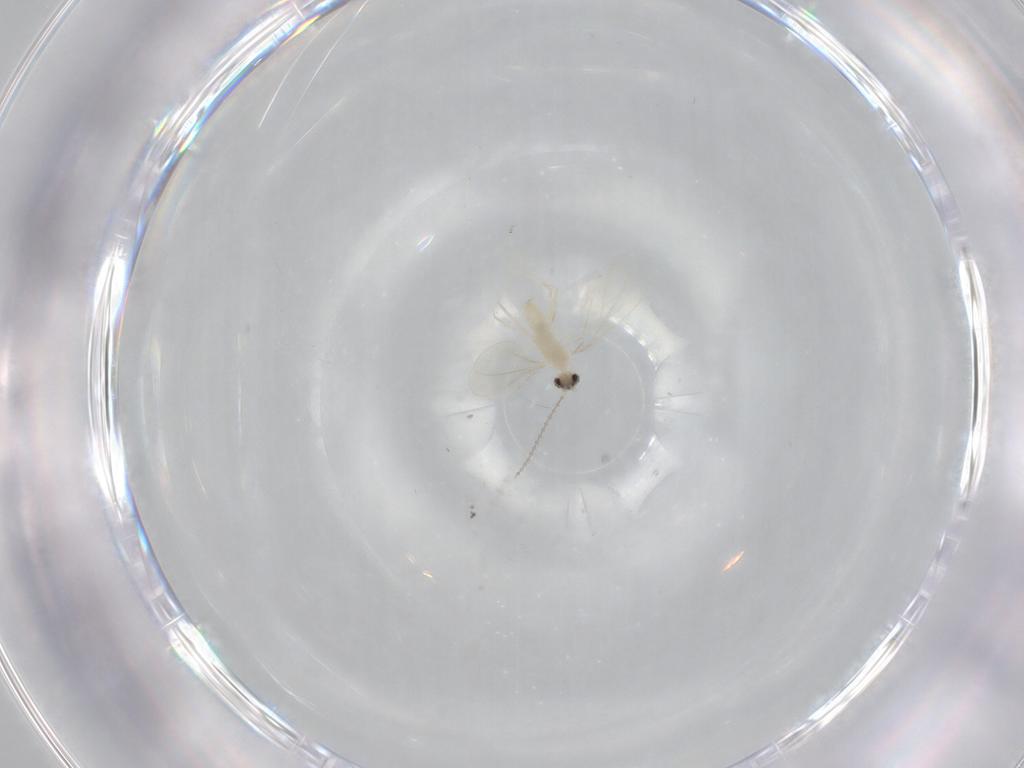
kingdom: Animalia
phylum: Arthropoda
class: Insecta
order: Diptera
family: Cecidomyiidae
